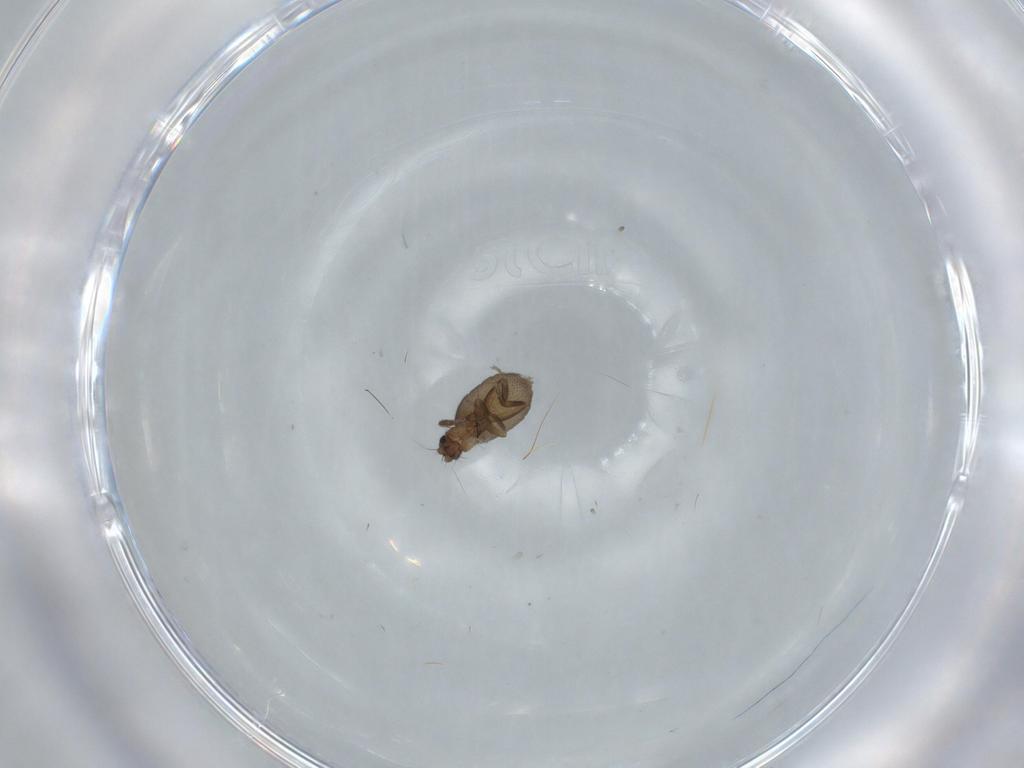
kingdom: Animalia
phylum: Arthropoda
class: Insecta
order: Diptera
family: Phoridae
